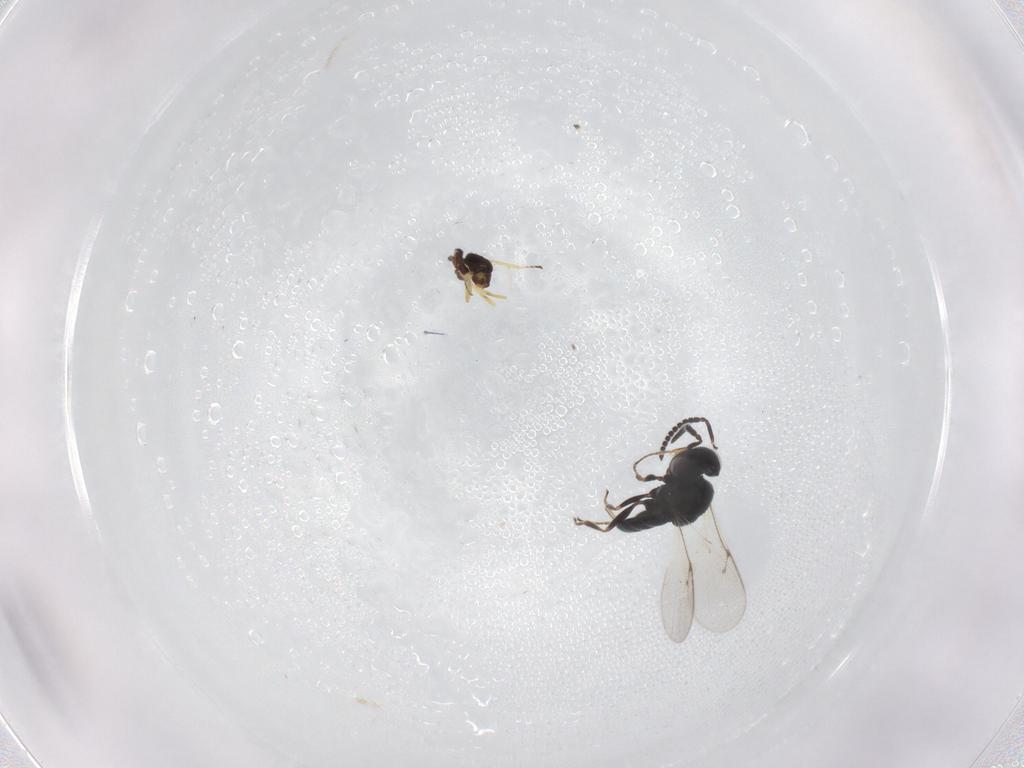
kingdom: Animalia
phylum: Arthropoda
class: Insecta
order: Hymenoptera
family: Scelionidae
